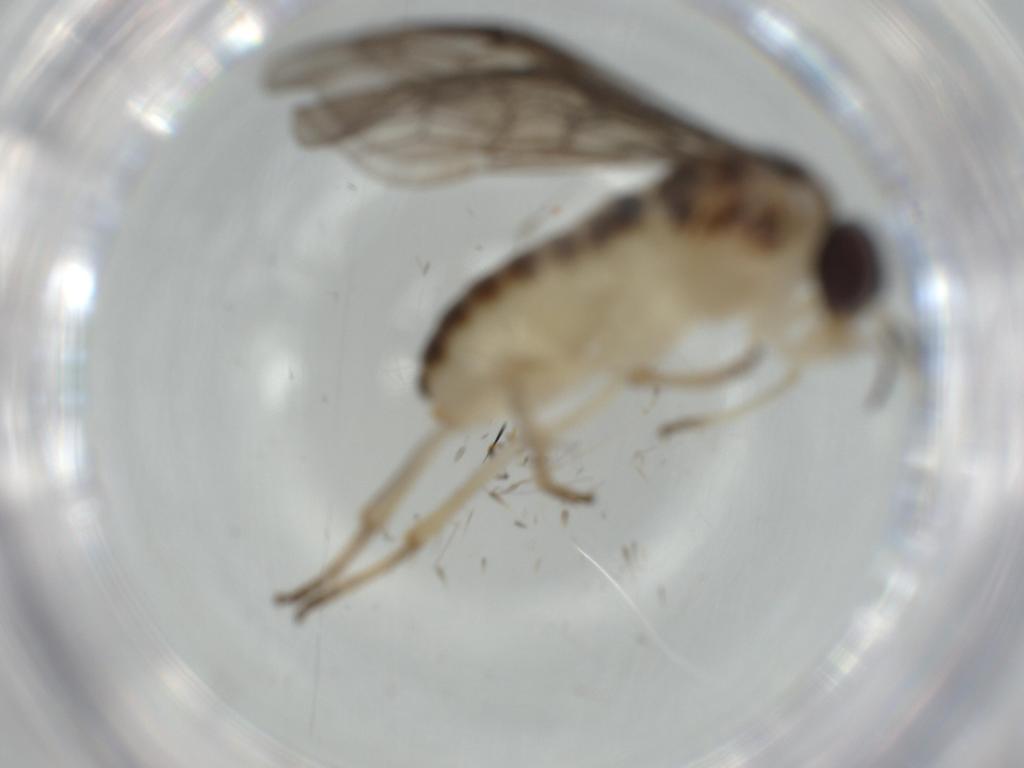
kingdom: Animalia
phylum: Arthropoda
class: Insecta
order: Hymenoptera
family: Pergidae
